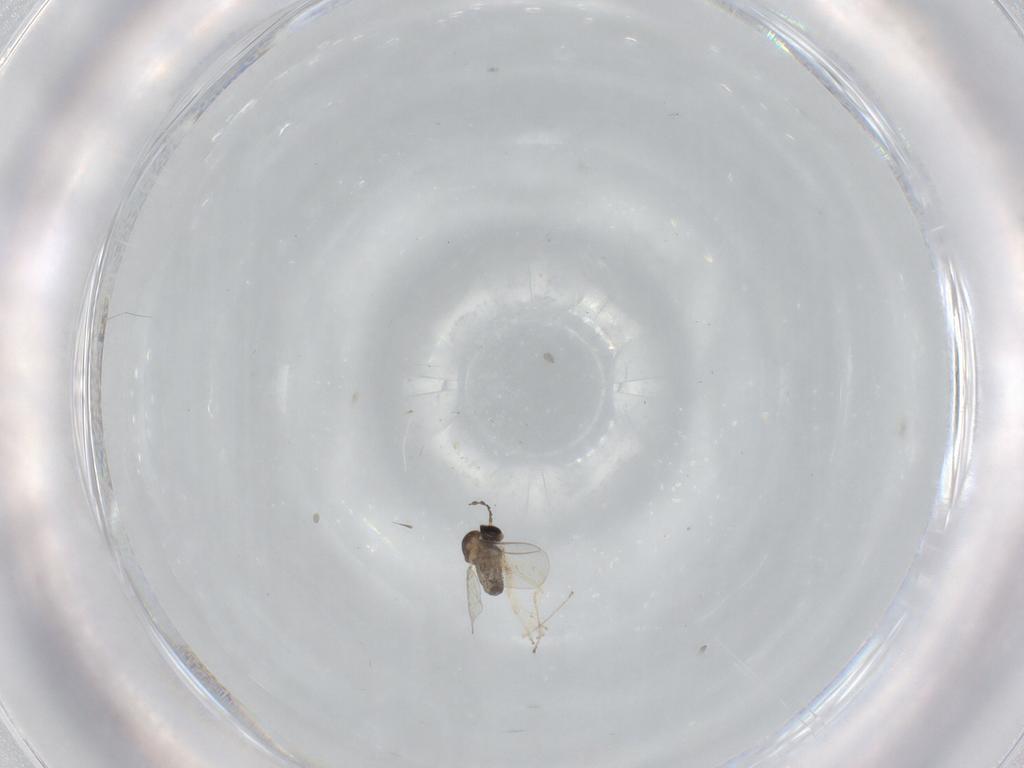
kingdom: Animalia
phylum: Arthropoda
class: Insecta
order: Diptera
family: Cecidomyiidae
